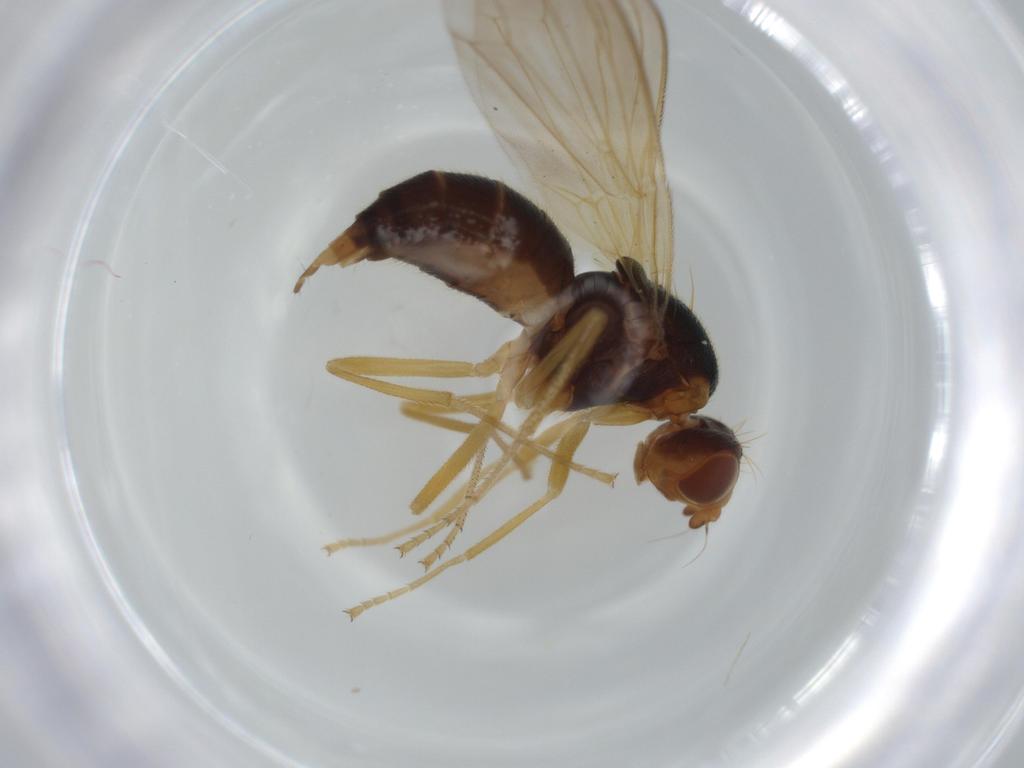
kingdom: Animalia
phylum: Arthropoda
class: Insecta
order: Diptera
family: Psilidae
